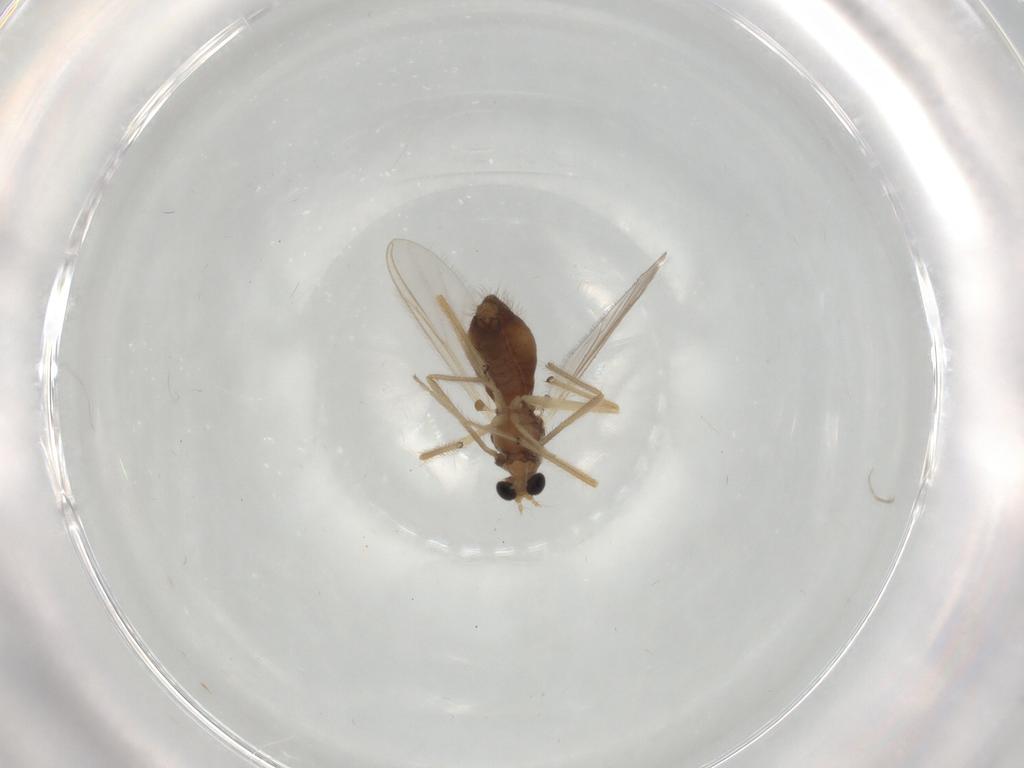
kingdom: Animalia
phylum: Arthropoda
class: Insecta
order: Diptera
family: Chironomidae
